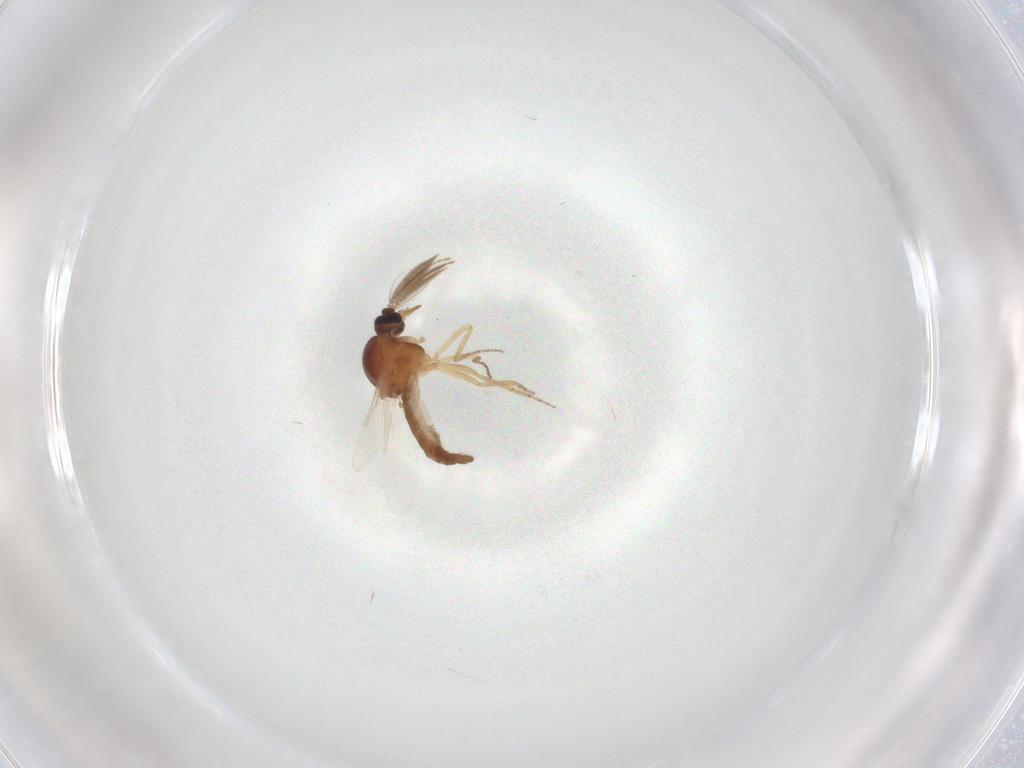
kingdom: Animalia
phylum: Arthropoda
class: Insecta
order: Diptera
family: Ceratopogonidae
